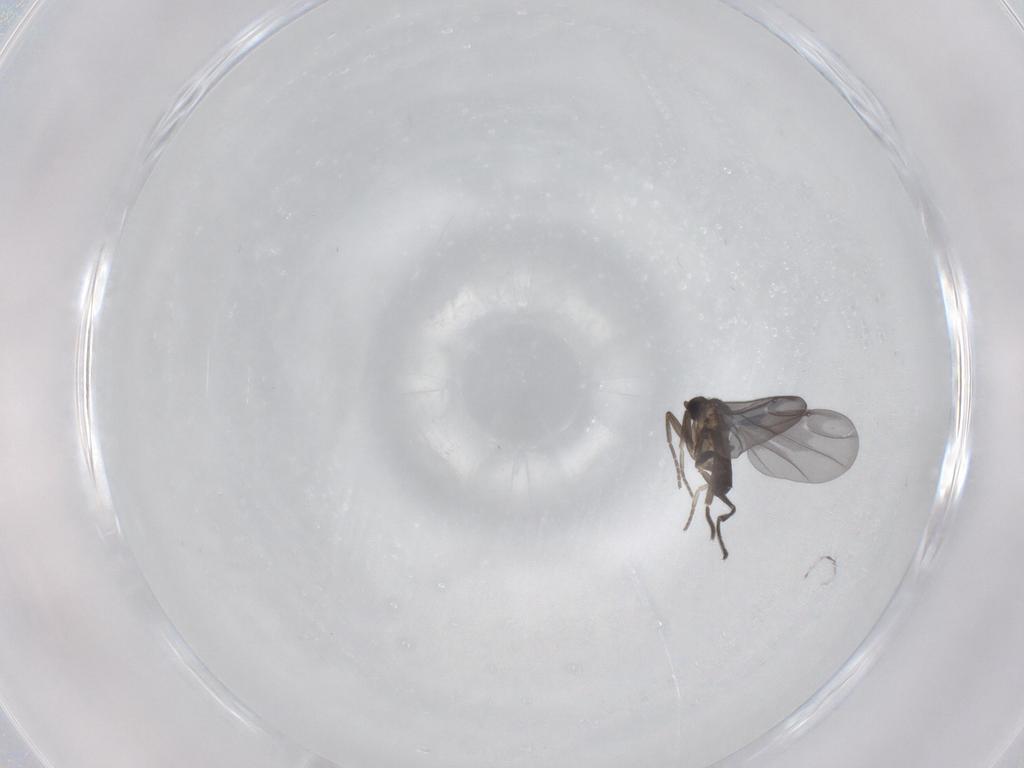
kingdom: Animalia
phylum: Arthropoda
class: Insecta
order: Diptera
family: Phoridae
